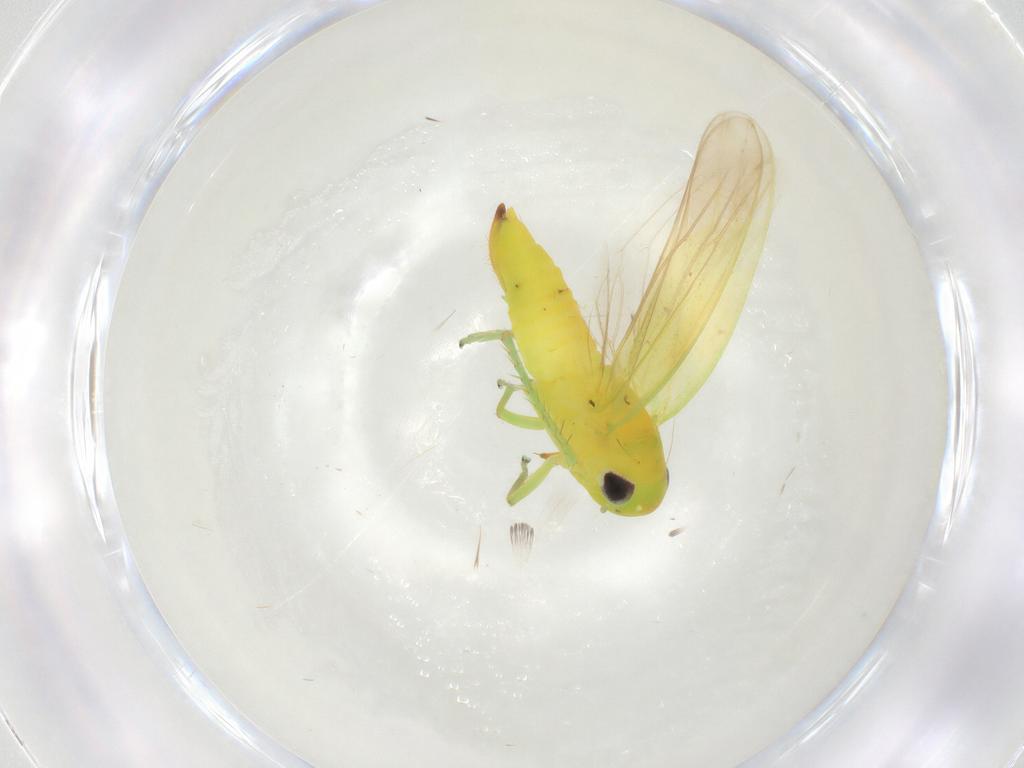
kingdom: Animalia
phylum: Arthropoda
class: Insecta
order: Hemiptera
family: Cicadellidae
